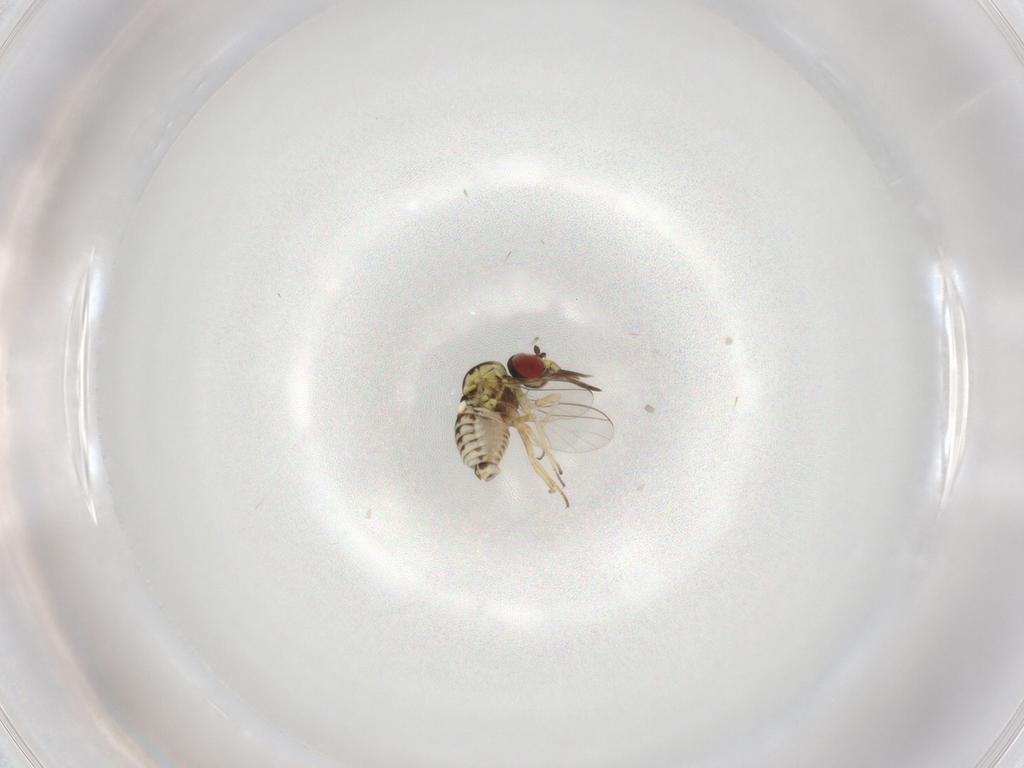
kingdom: Animalia
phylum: Arthropoda
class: Insecta
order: Diptera
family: Bombyliidae
